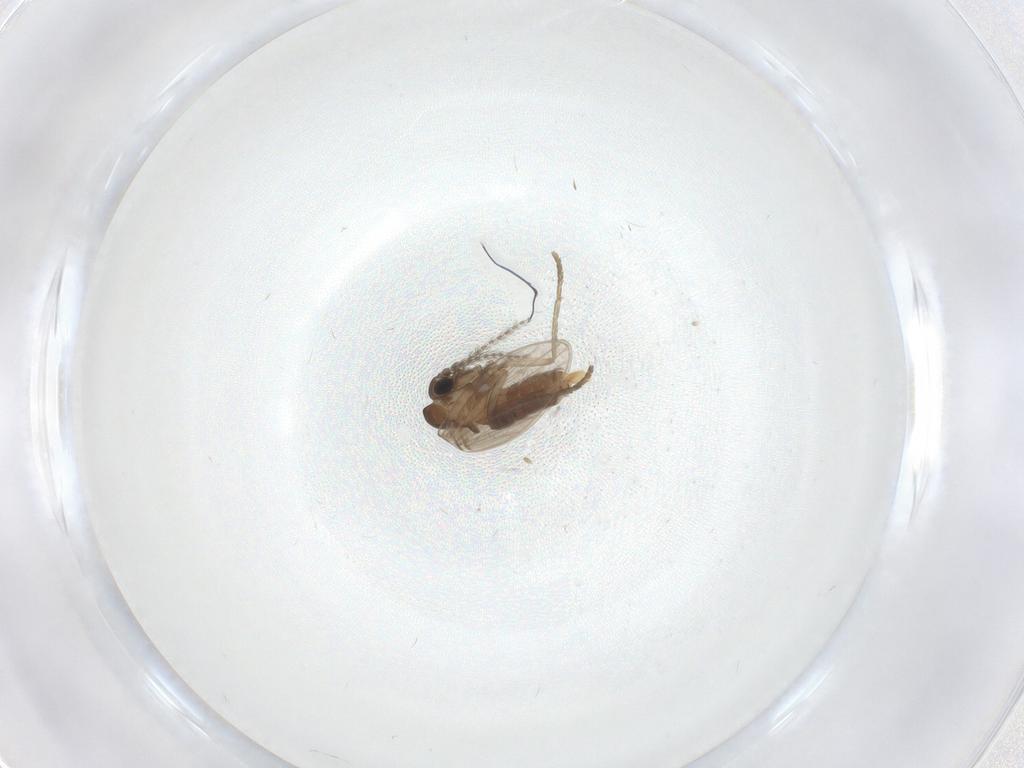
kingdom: Animalia
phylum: Arthropoda
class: Insecta
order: Diptera
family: Psychodidae
